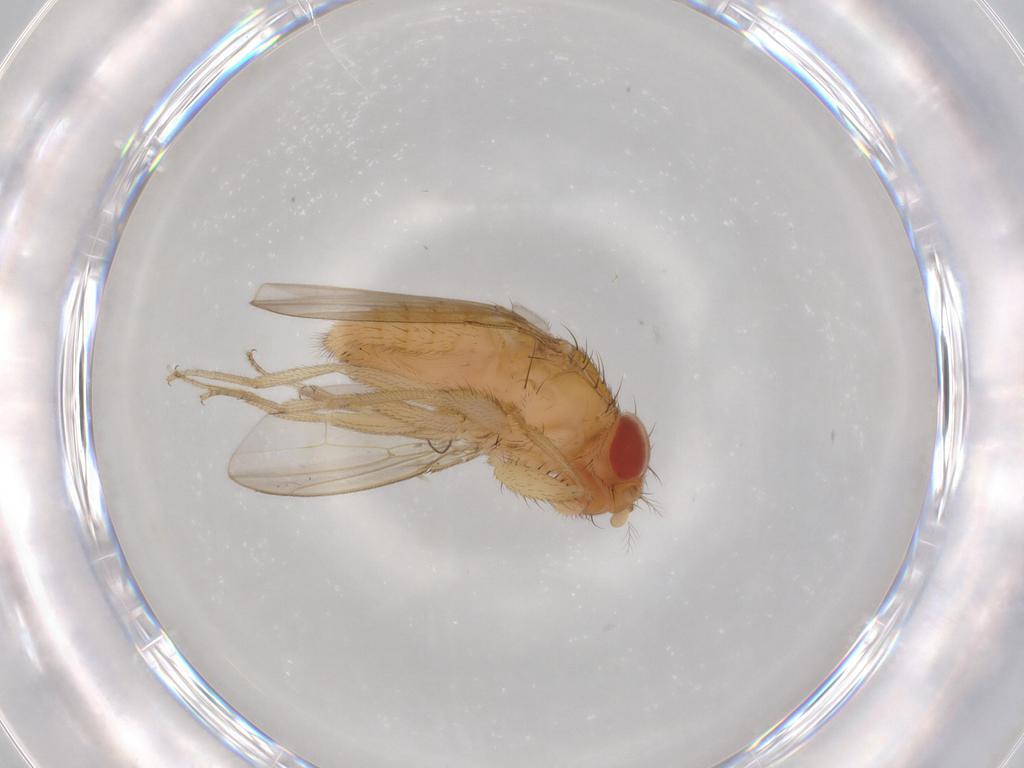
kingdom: Animalia
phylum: Arthropoda
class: Insecta
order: Diptera
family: Drosophilidae
